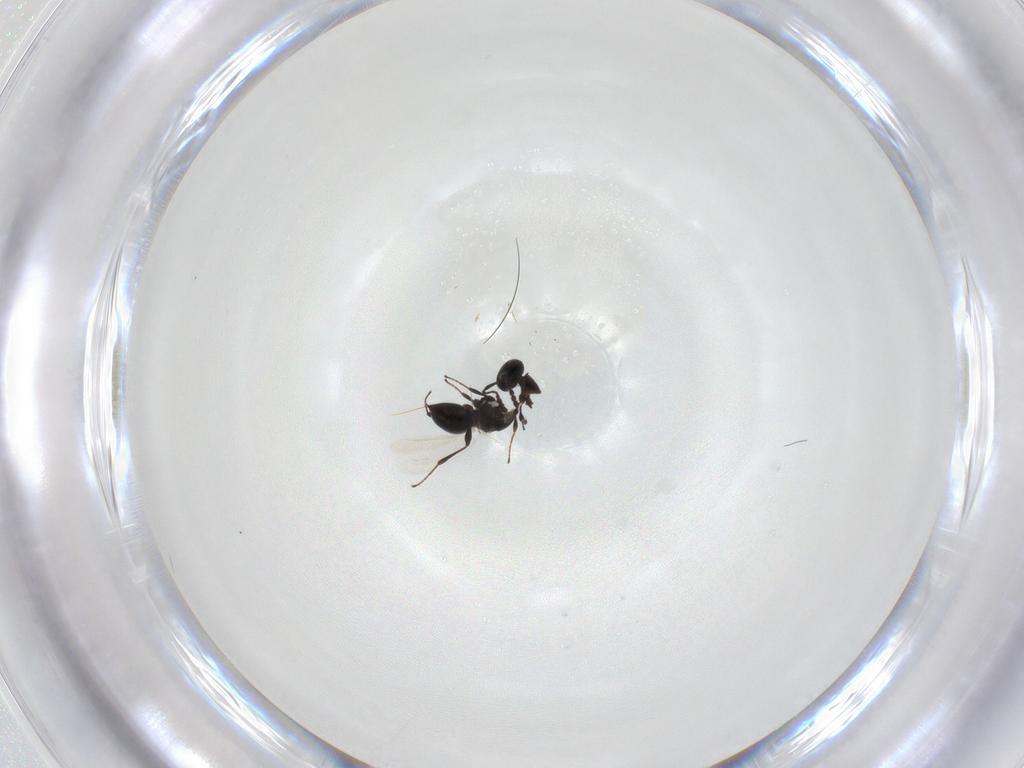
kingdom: Animalia
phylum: Arthropoda
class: Insecta
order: Hymenoptera
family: Platygastridae
